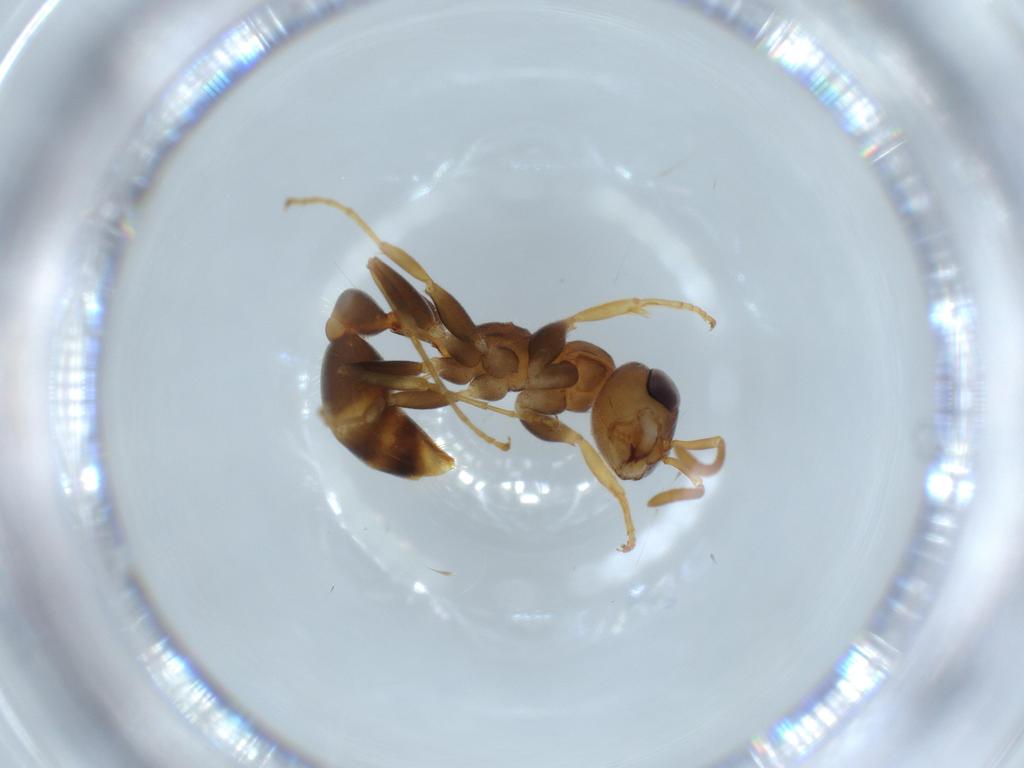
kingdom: Animalia
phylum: Arthropoda
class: Insecta
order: Hymenoptera
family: Formicidae
